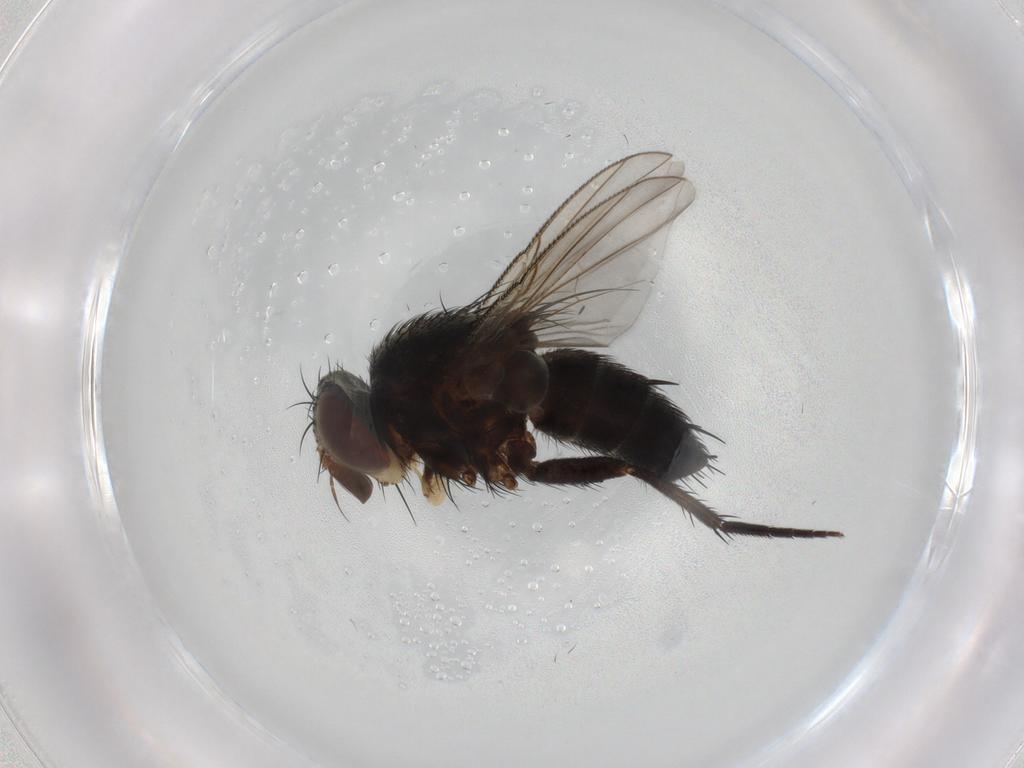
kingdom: Animalia
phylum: Arthropoda
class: Insecta
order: Diptera
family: Tachinidae
